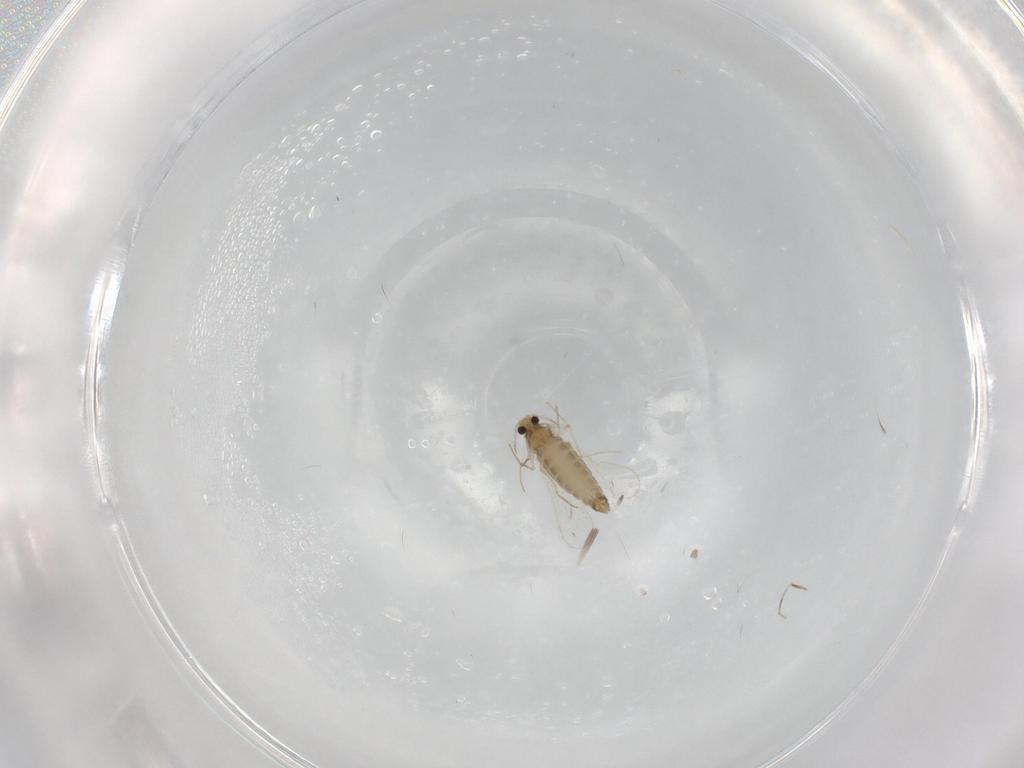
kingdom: Animalia
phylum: Arthropoda
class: Insecta
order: Diptera
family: Chironomidae
